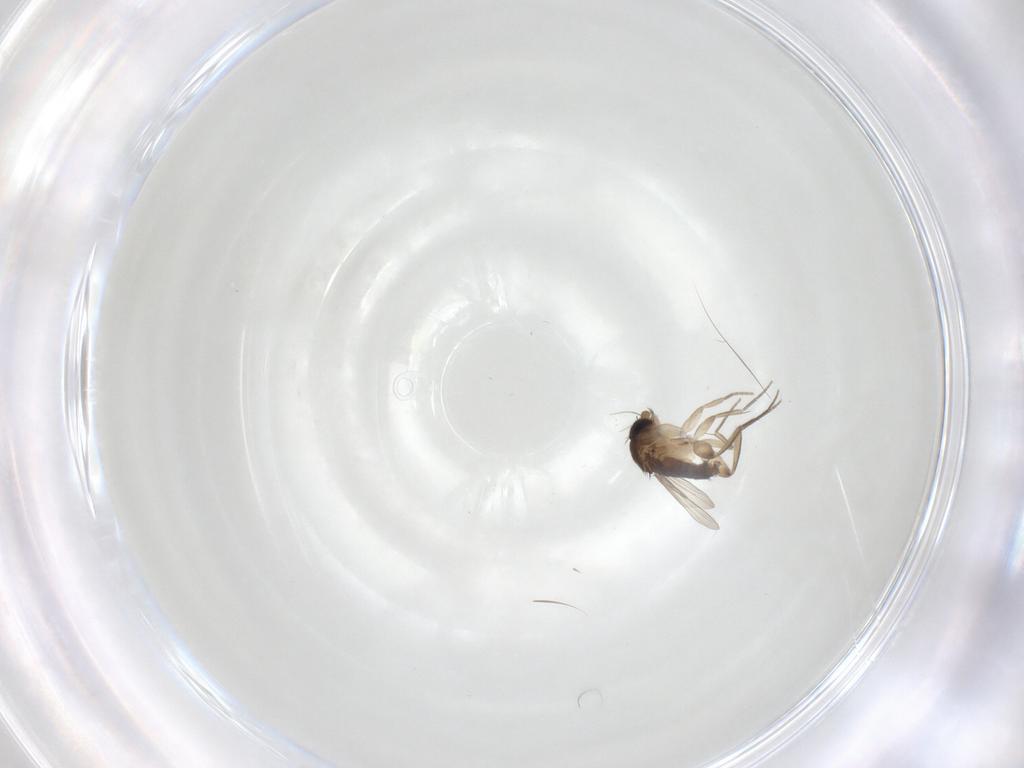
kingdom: Animalia
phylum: Arthropoda
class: Insecta
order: Diptera
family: Phoridae
